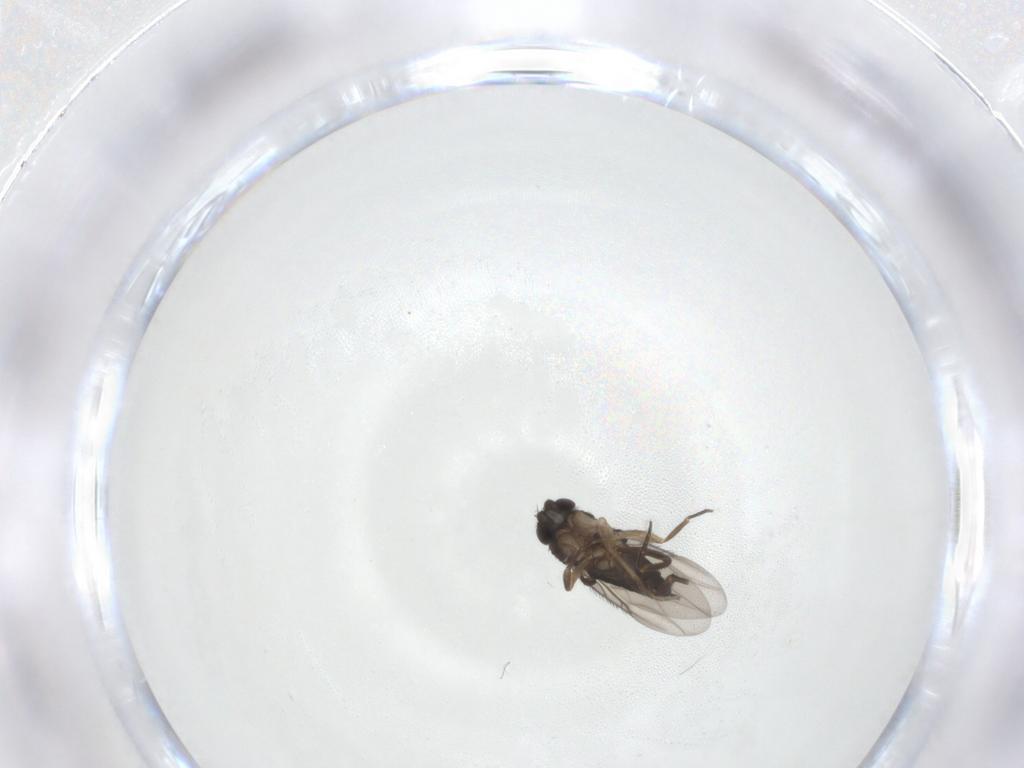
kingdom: Animalia
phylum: Arthropoda
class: Insecta
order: Diptera
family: Phoridae
